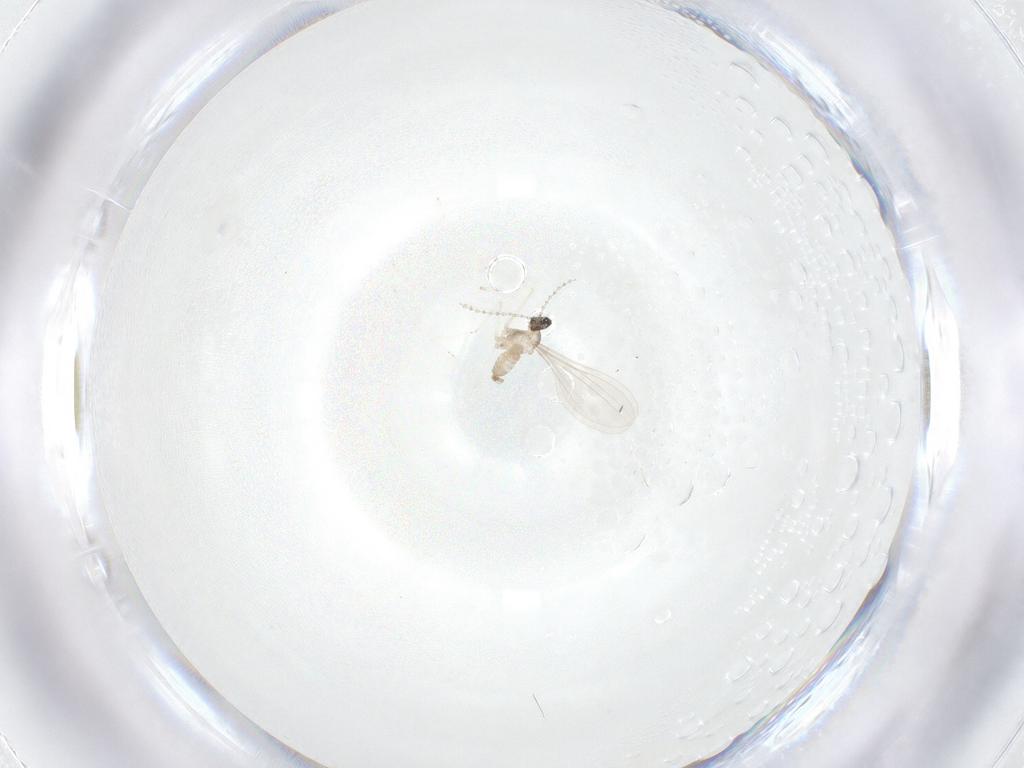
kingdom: Animalia
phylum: Arthropoda
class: Insecta
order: Diptera
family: Cecidomyiidae
